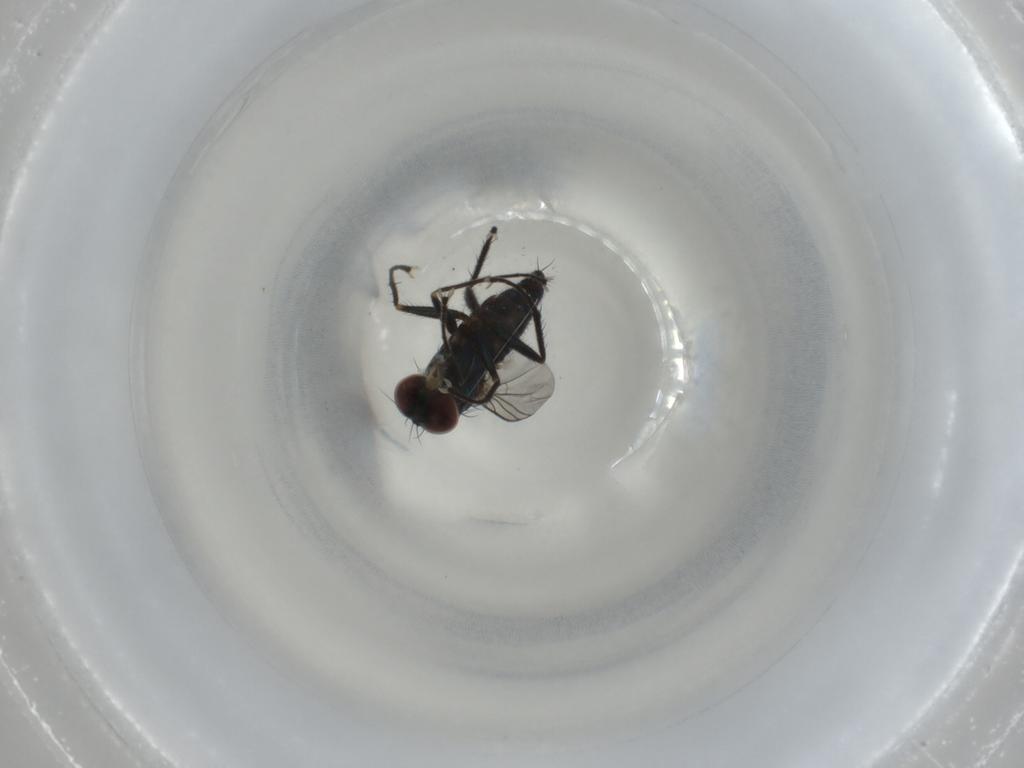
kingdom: Animalia
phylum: Arthropoda
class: Insecta
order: Diptera
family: Dolichopodidae
